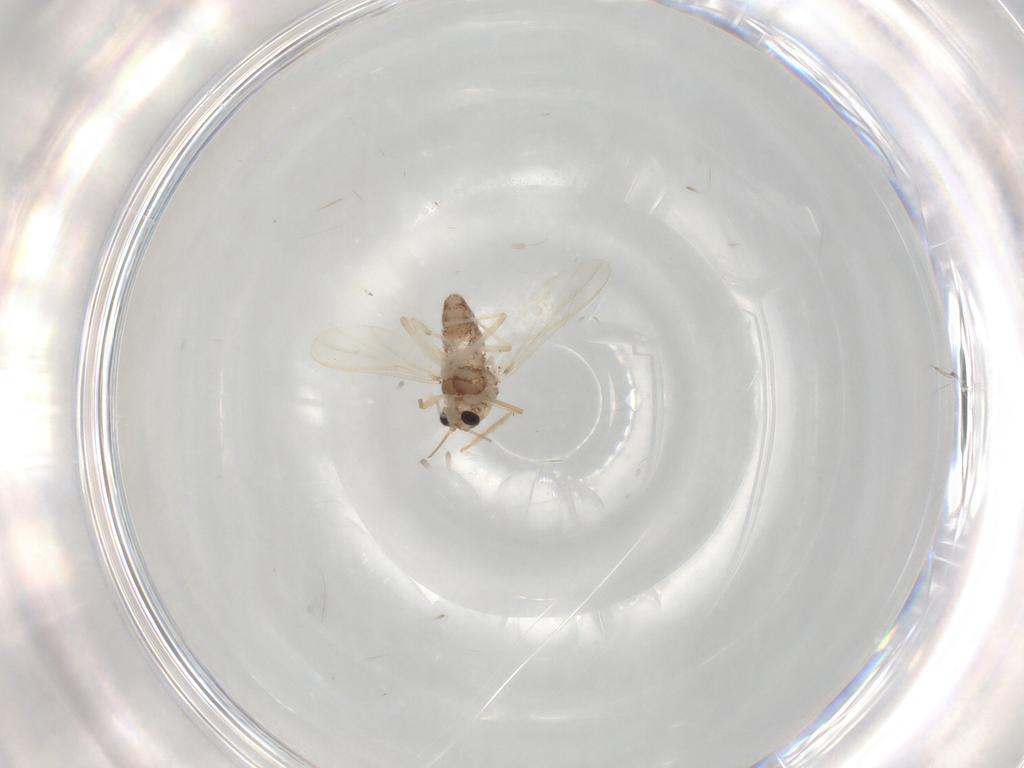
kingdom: Animalia
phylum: Arthropoda
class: Insecta
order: Diptera
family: Chironomidae
